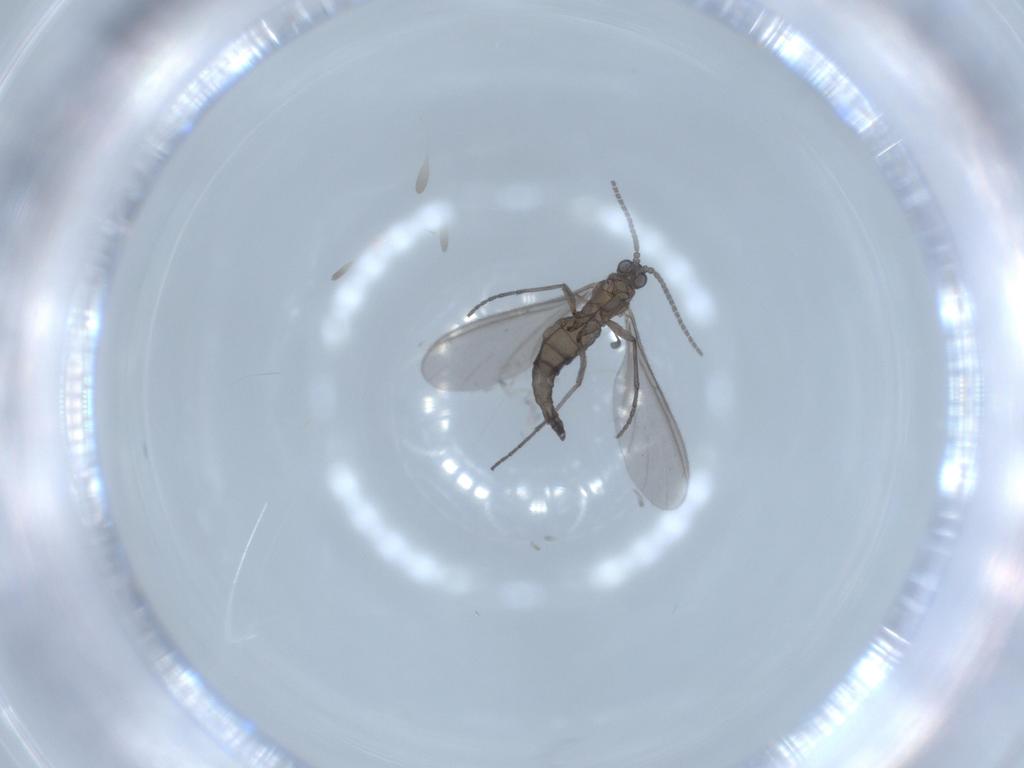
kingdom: Animalia
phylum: Arthropoda
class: Insecta
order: Diptera
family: Sciaridae
